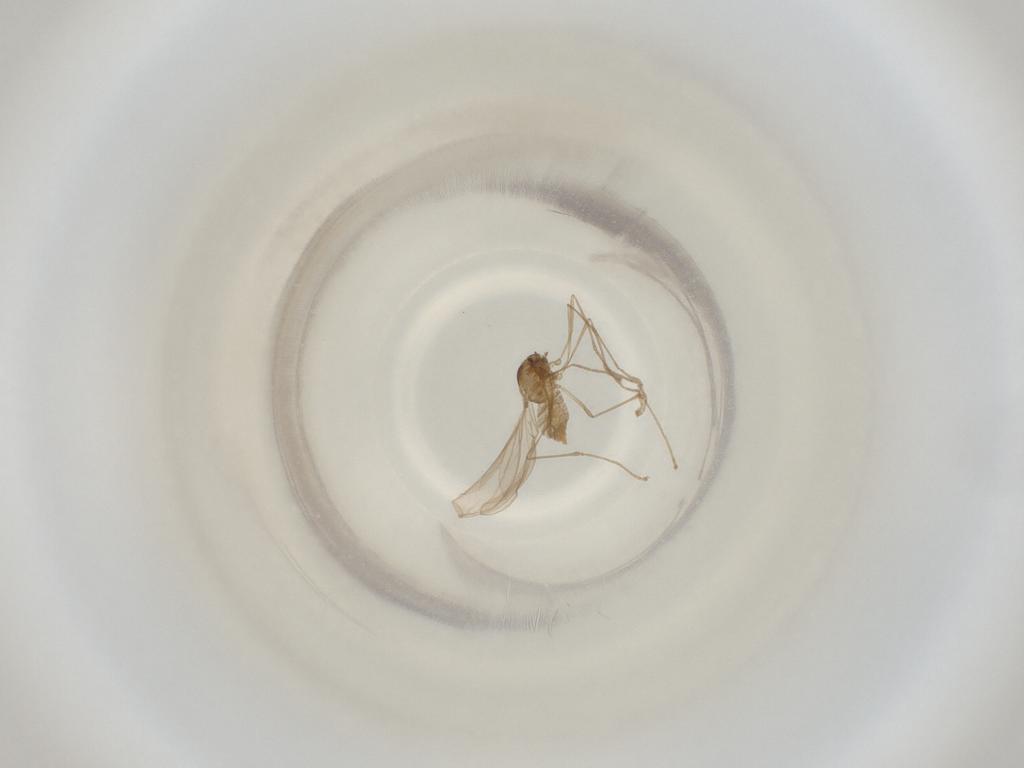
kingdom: Animalia
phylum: Arthropoda
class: Insecta
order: Diptera
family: Cecidomyiidae
